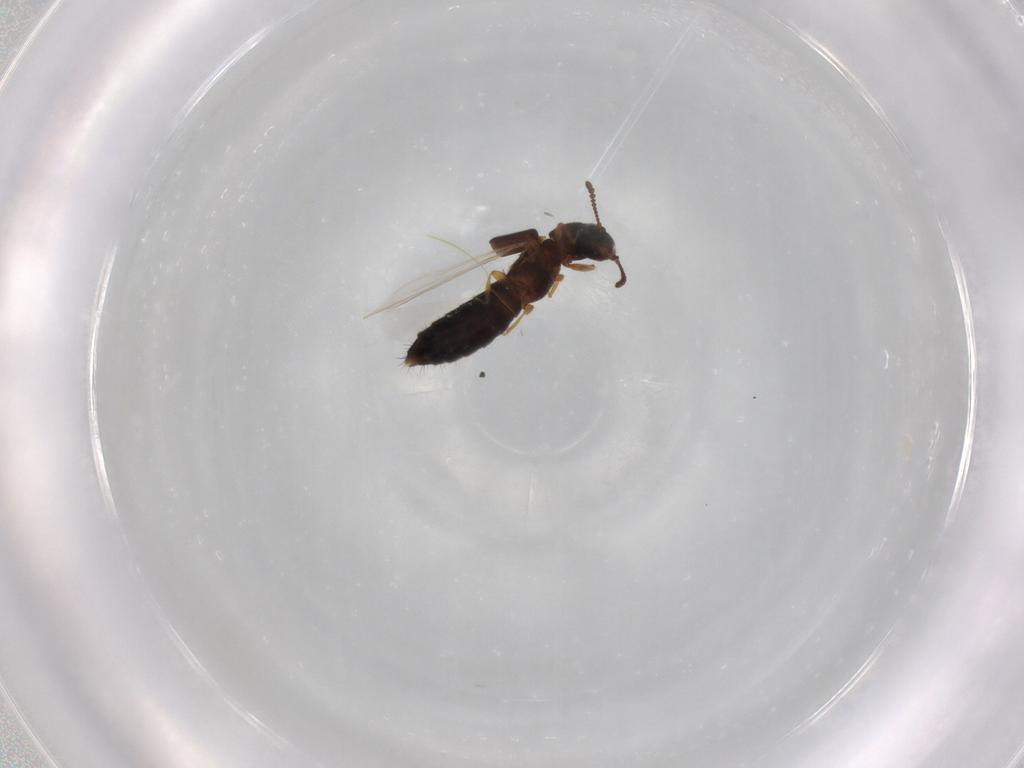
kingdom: Animalia
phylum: Arthropoda
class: Insecta
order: Coleoptera
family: Staphylinidae
